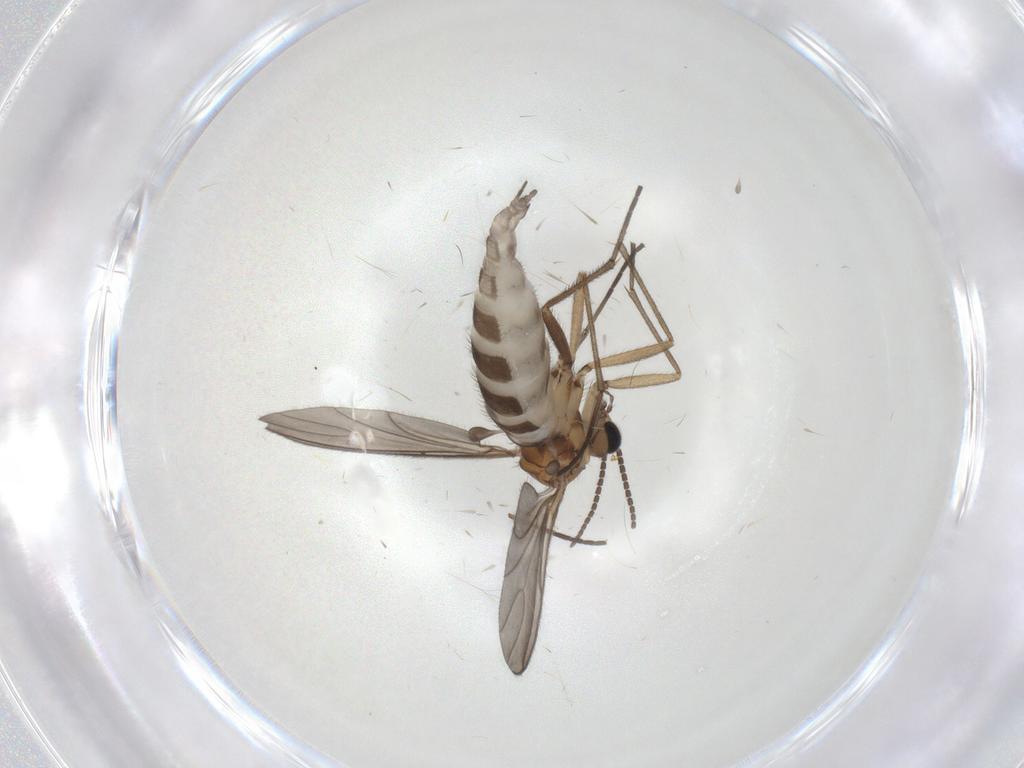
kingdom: Animalia
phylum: Arthropoda
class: Insecta
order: Diptera
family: Sciaridae
